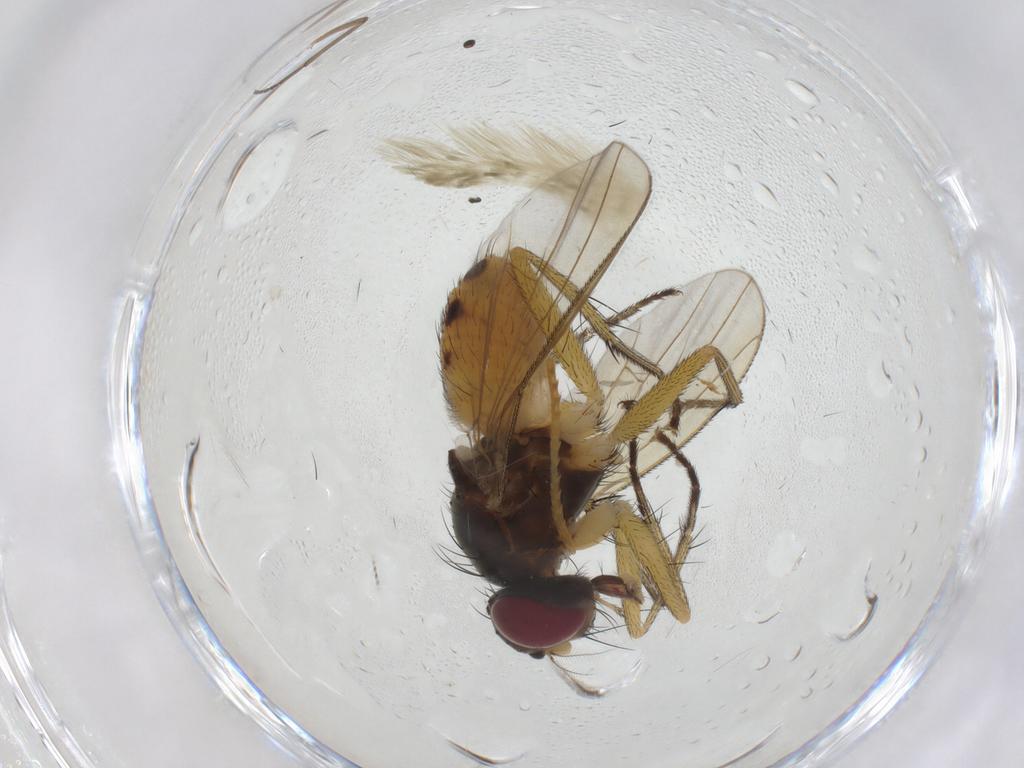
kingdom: Animalia
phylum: Arthropoda
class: Insecta
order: Diptera
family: Muscidae
